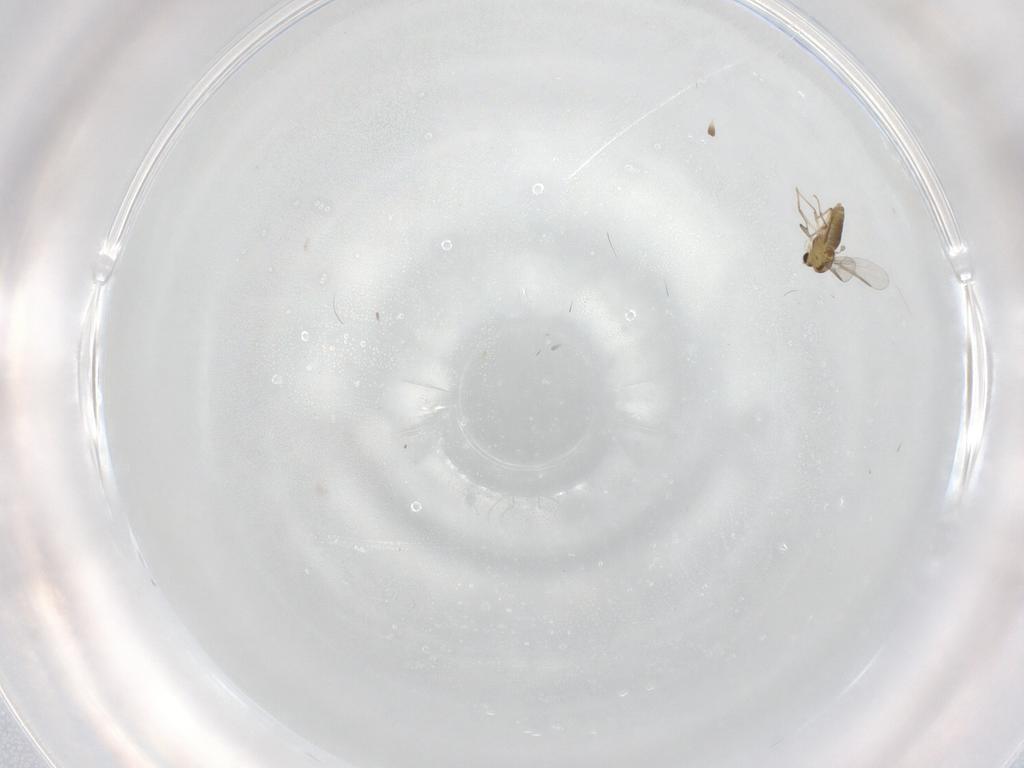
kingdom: Animalia
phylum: Arthropoda
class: Insecta
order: Diptera
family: Chironomidae
